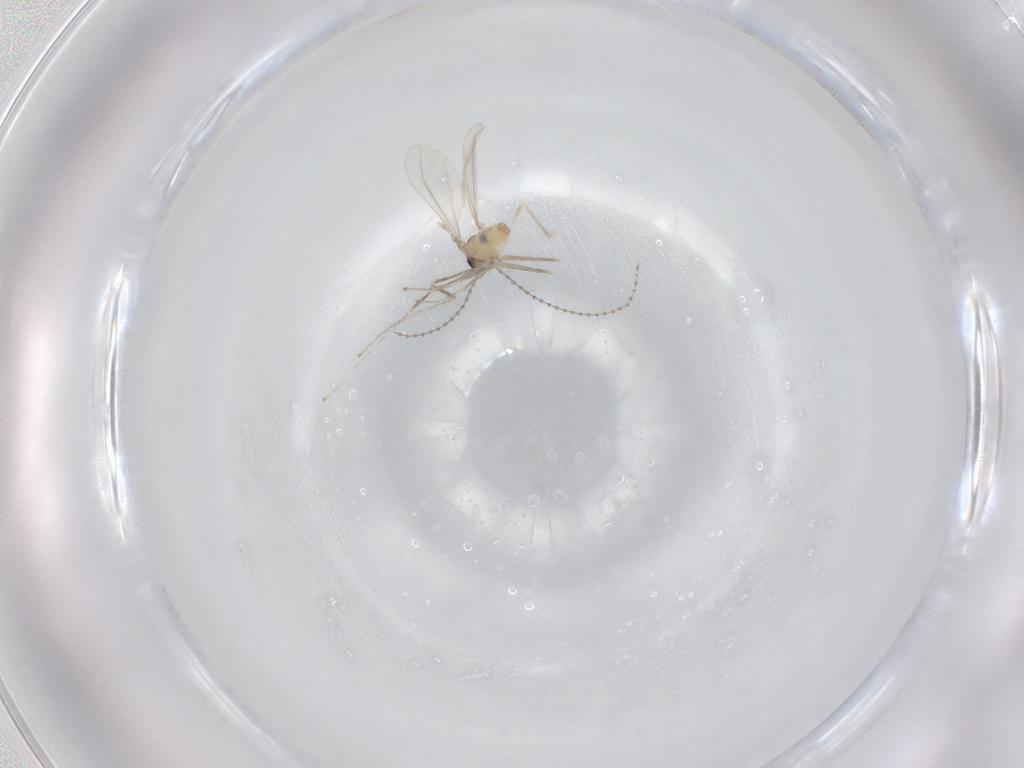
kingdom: Animalia
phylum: Arthropoda
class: Insecta
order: Diptera
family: Cecidomyiidae
